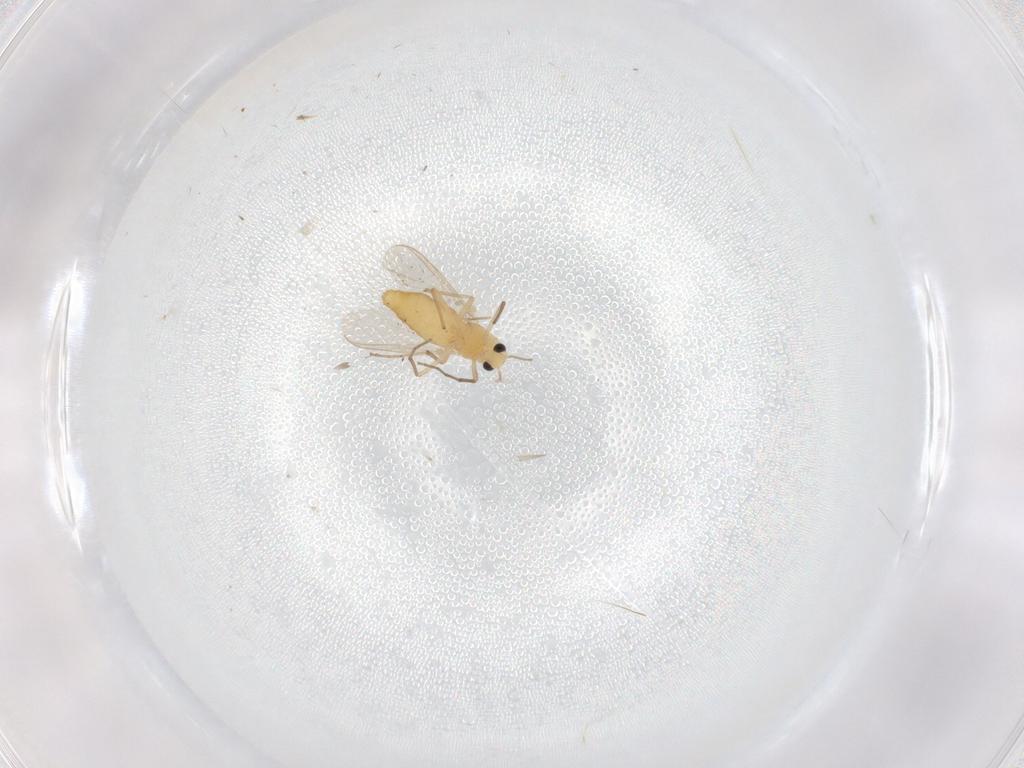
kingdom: Animalia
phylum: Arthropoda
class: Insecta
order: Diptera
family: Chironomidae
